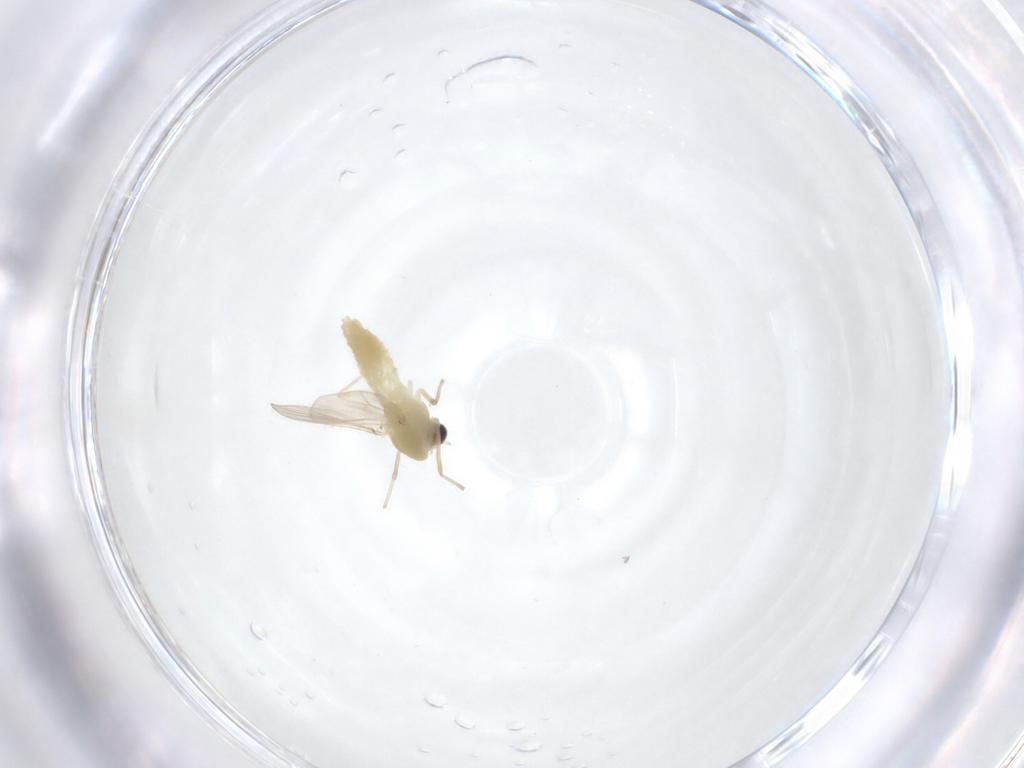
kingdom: Animalia
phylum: Arthropoda
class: Insecta
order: Diptera
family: Chironomidae
